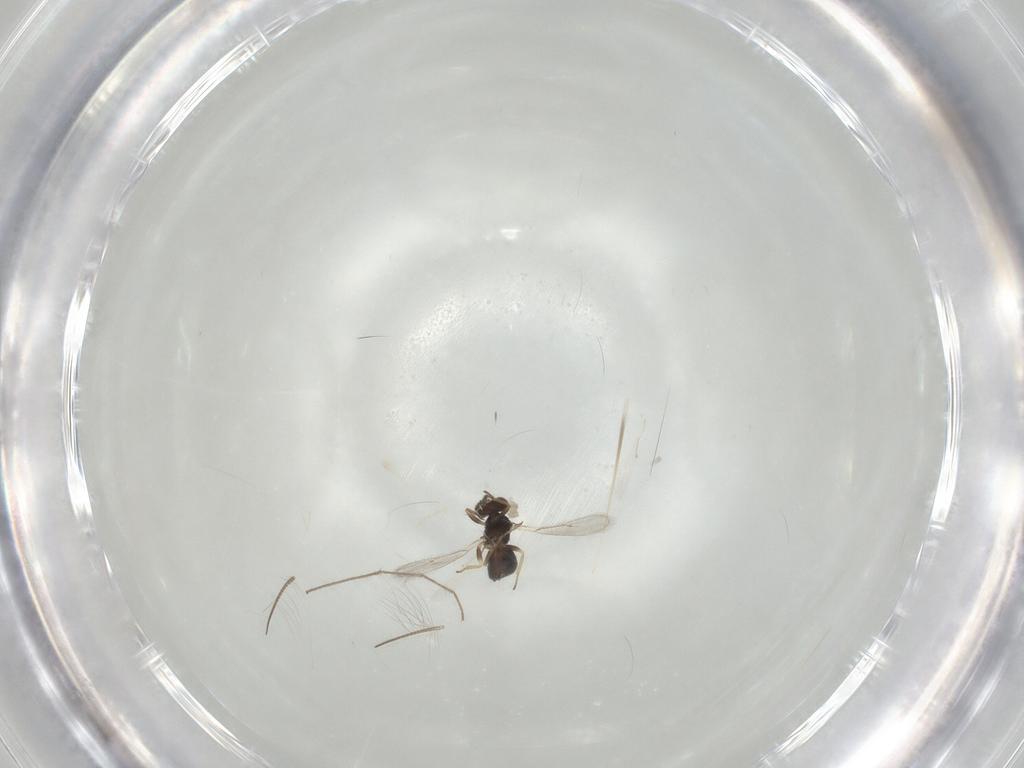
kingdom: Animalia
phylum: Arthropoda
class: Insecta
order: Hymenoptera
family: Eulophidae
